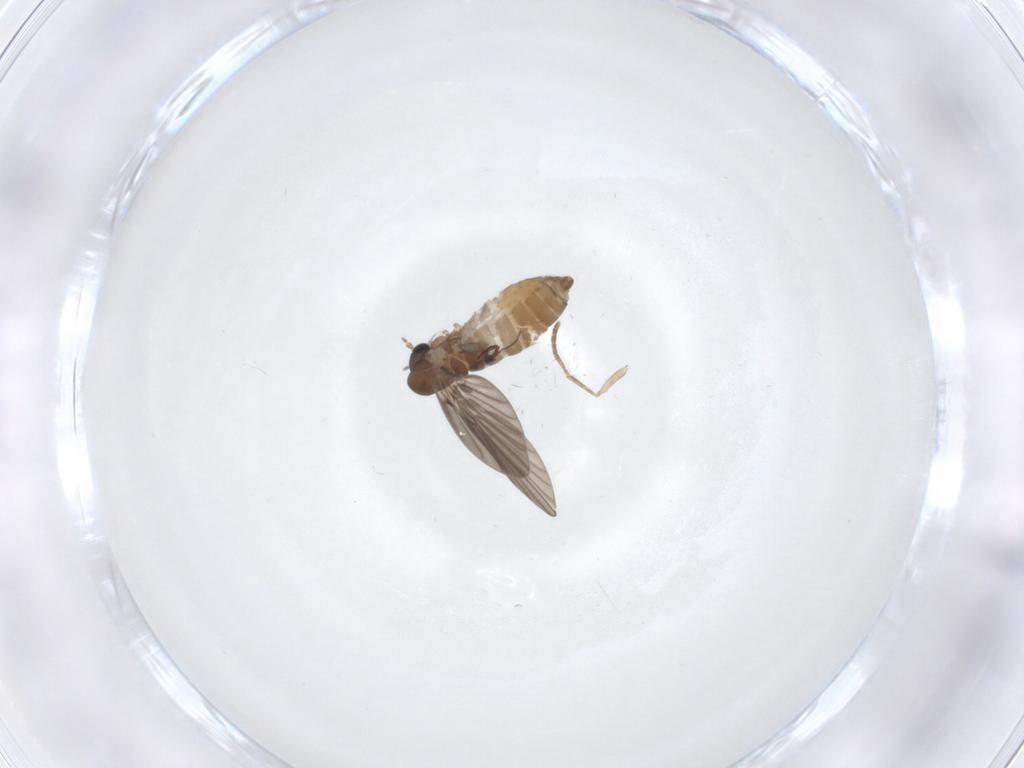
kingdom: Animalia
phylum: Arthropoda
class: Insecta
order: Diptera
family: Psychodidae
